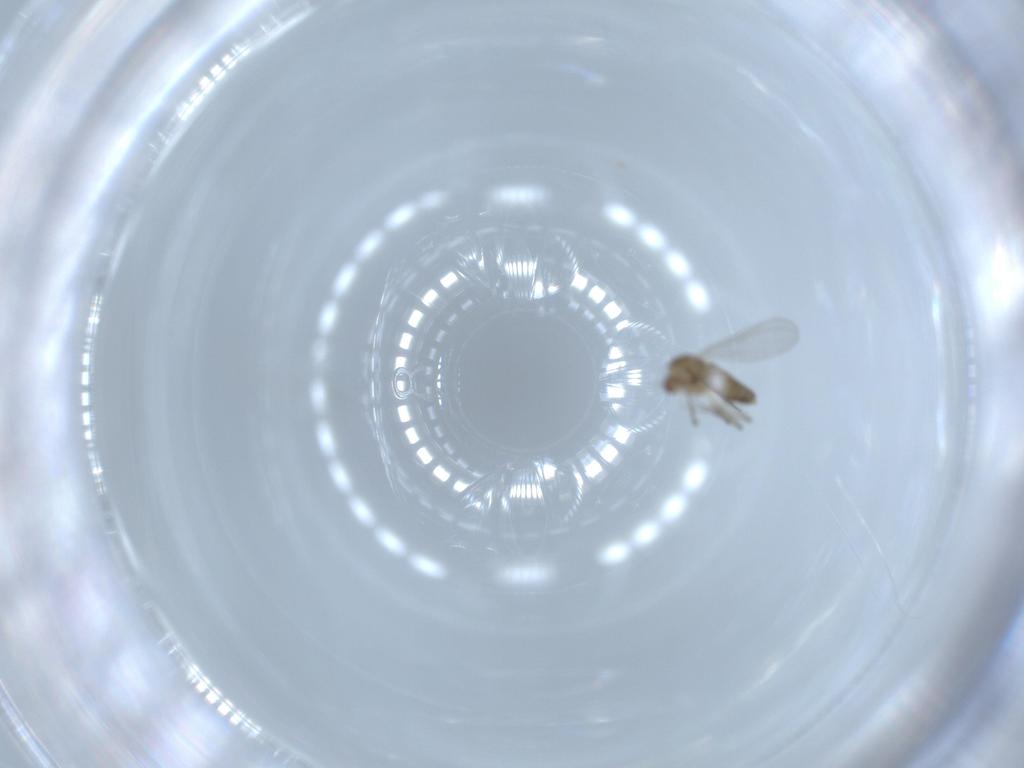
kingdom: Animalia
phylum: Arthropoda
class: Insecta
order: Diptera
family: Chironomidae
